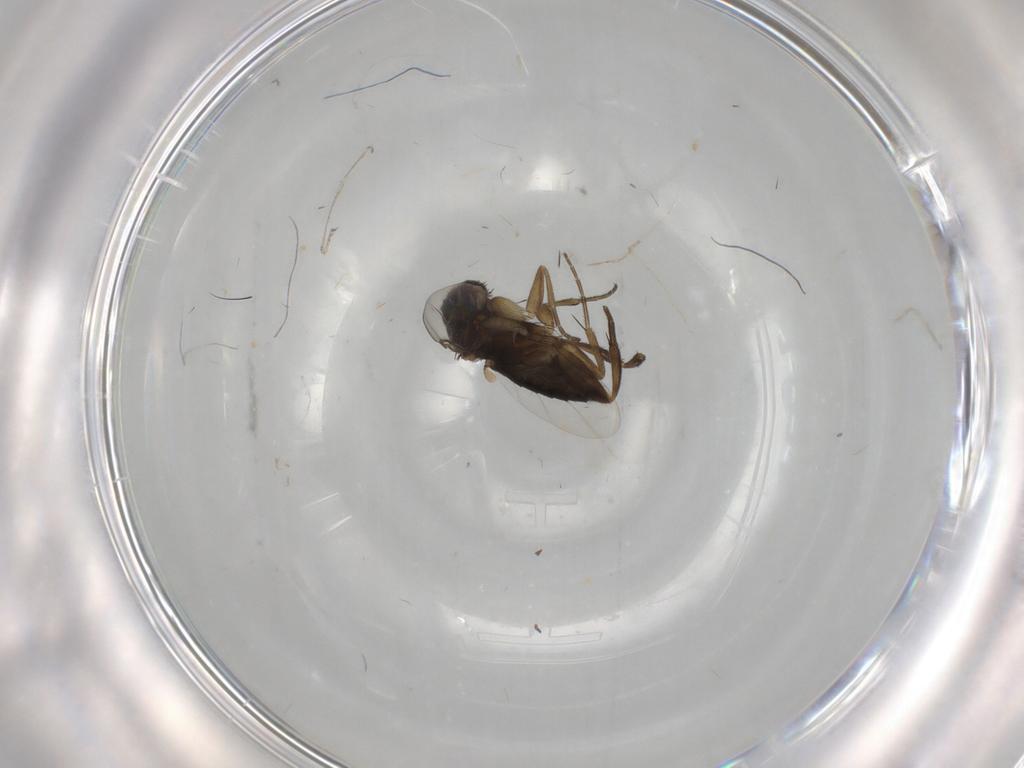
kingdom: Animalia
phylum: Arthropoda
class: Insecta
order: Diptera
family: Phoridae
